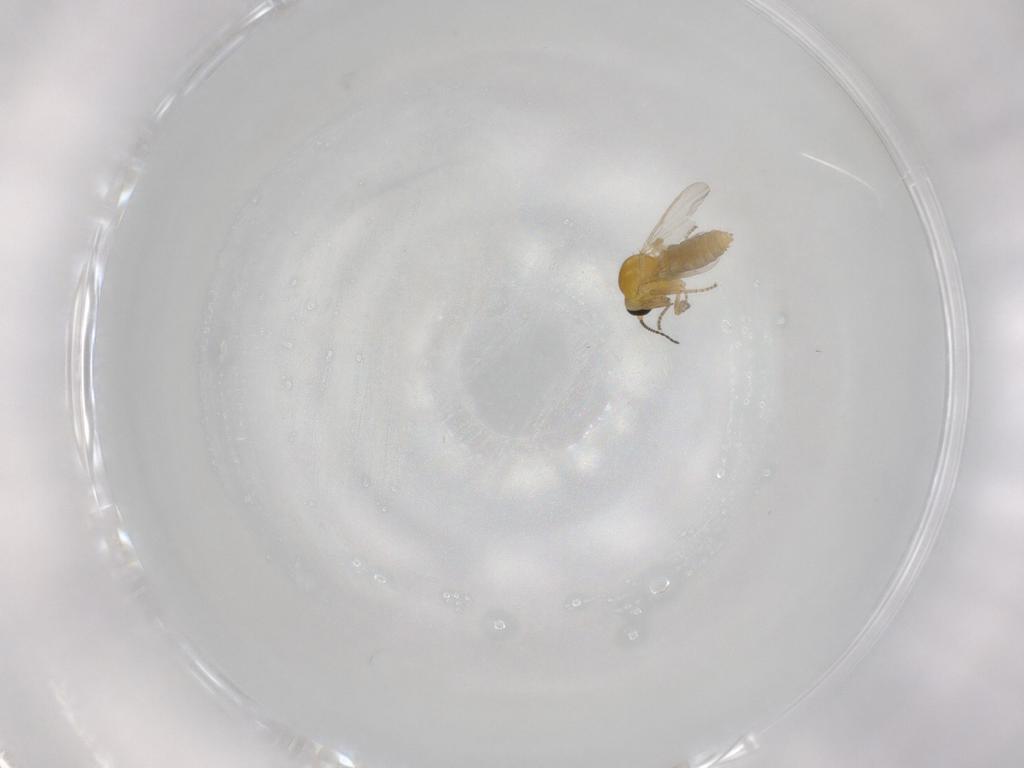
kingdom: Animalia
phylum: Arthropoda
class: Insecta
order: Diptera
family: Ceratopogonidae
